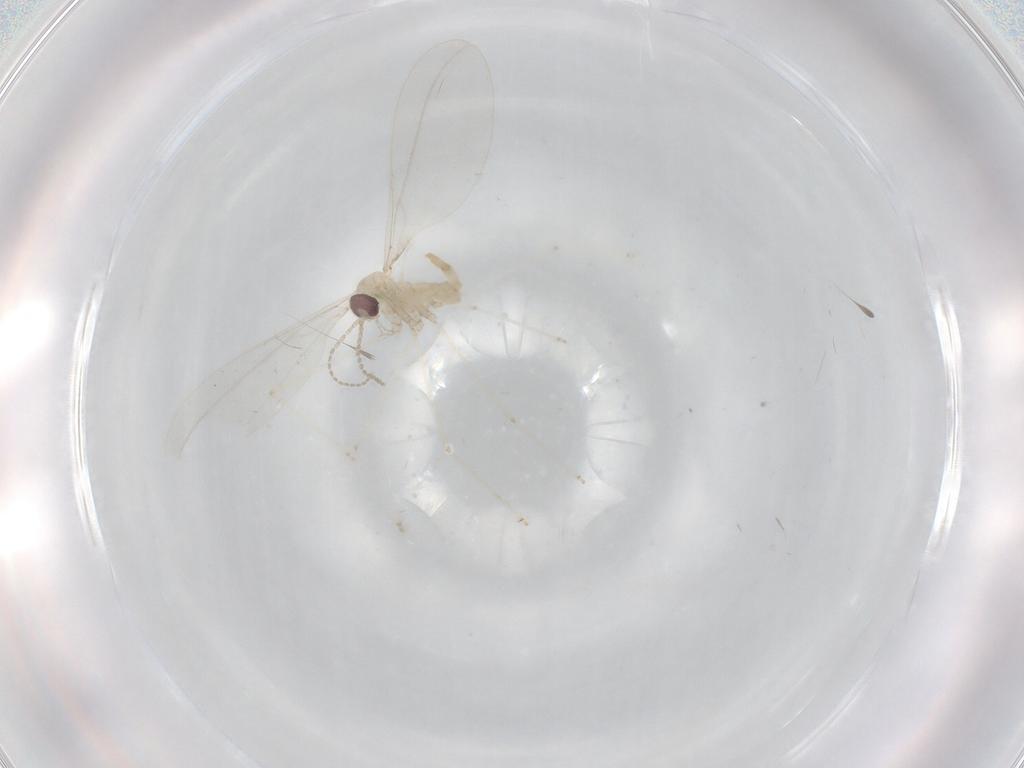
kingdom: Animalia
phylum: Arthropoda
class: Insecta
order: Diptera
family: Cecidomyiidae
